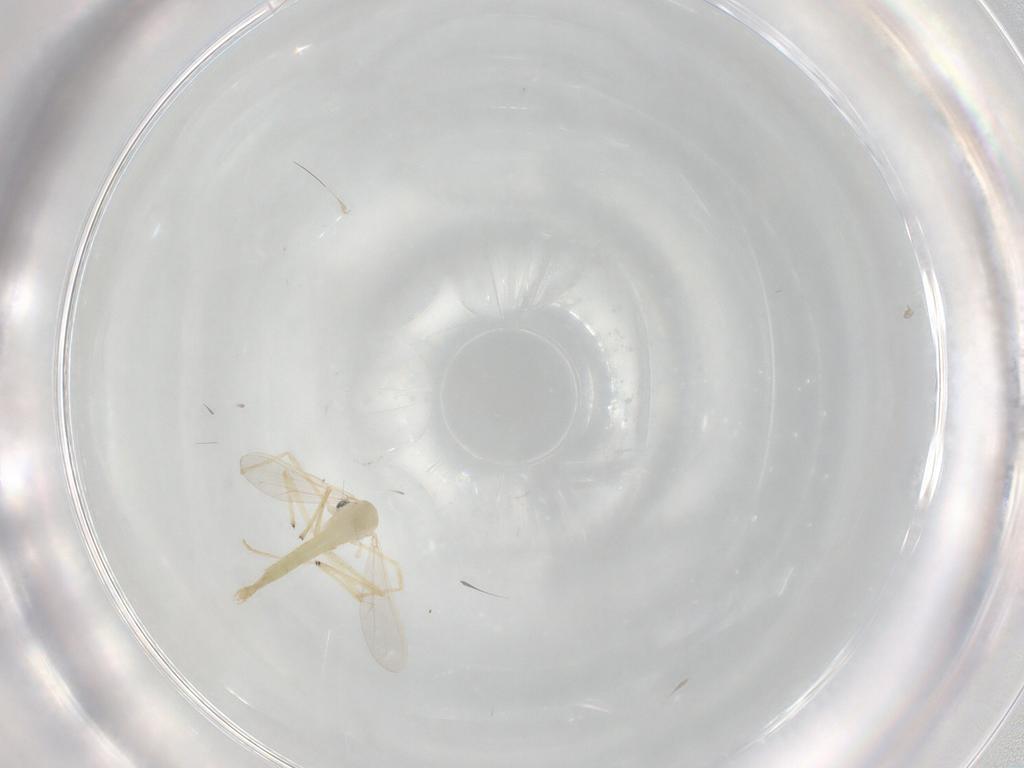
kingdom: Animalia
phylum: Arthropoda
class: Insecta
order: Diptera
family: Chironomidae
